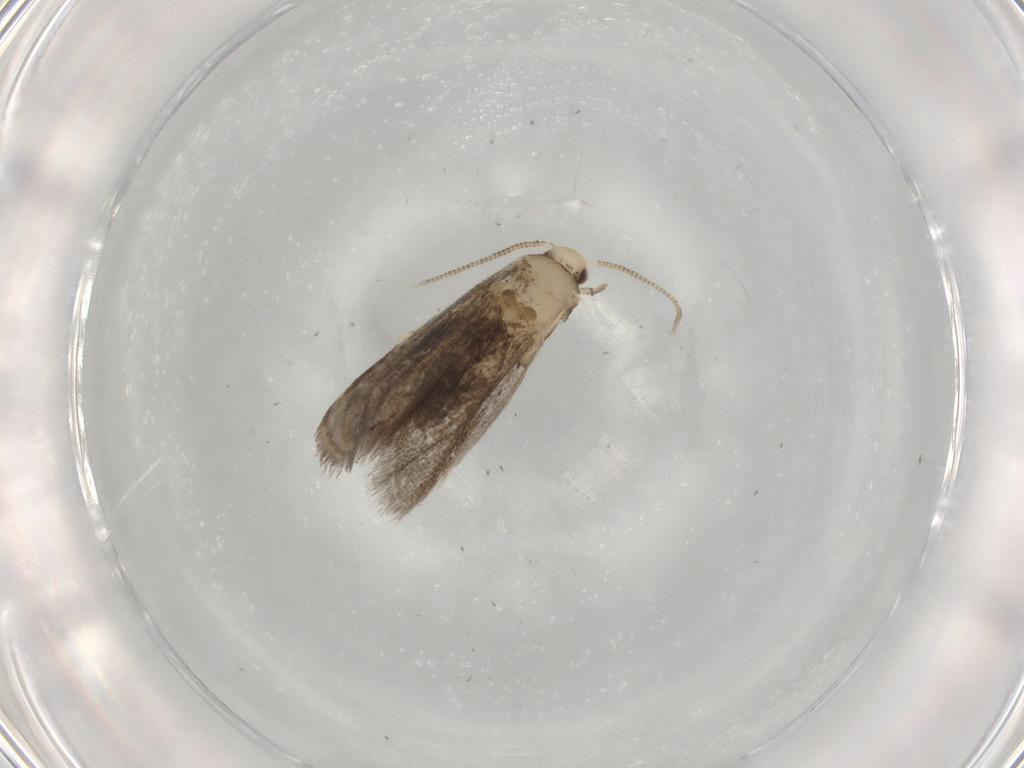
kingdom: Animalia
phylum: Arthropoda
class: Insecta
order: Lepidoptera
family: Dryadaulidae
